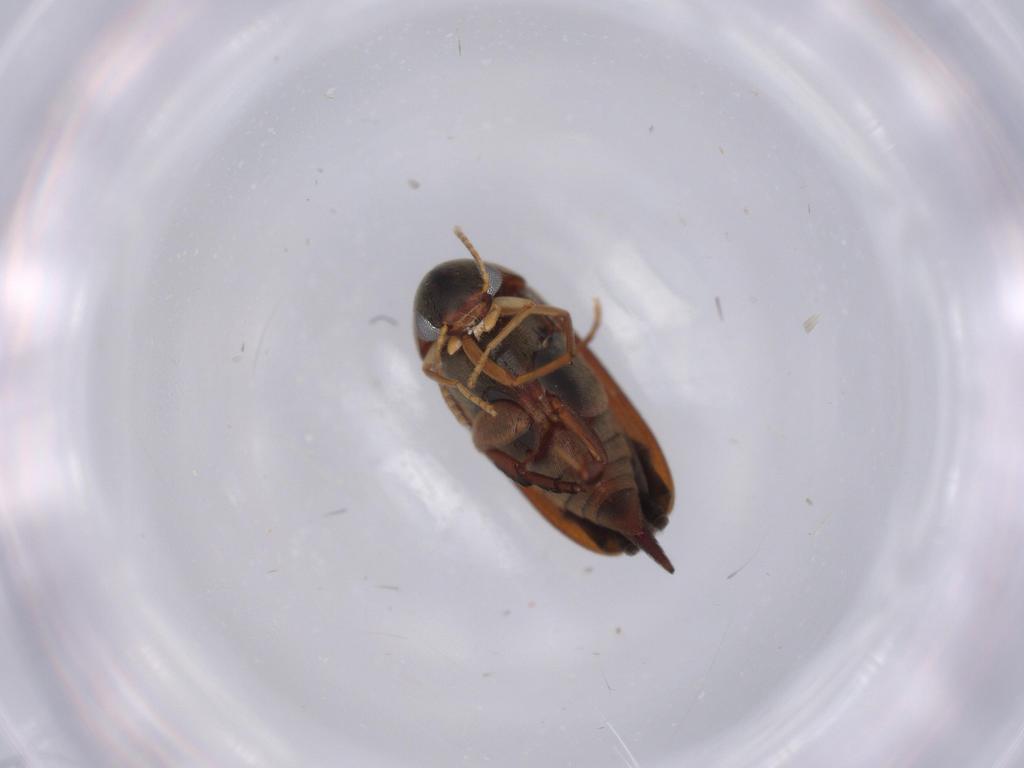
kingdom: Animalia
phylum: Arthropoda
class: Insecta
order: Coleoptera
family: Mordellidae
